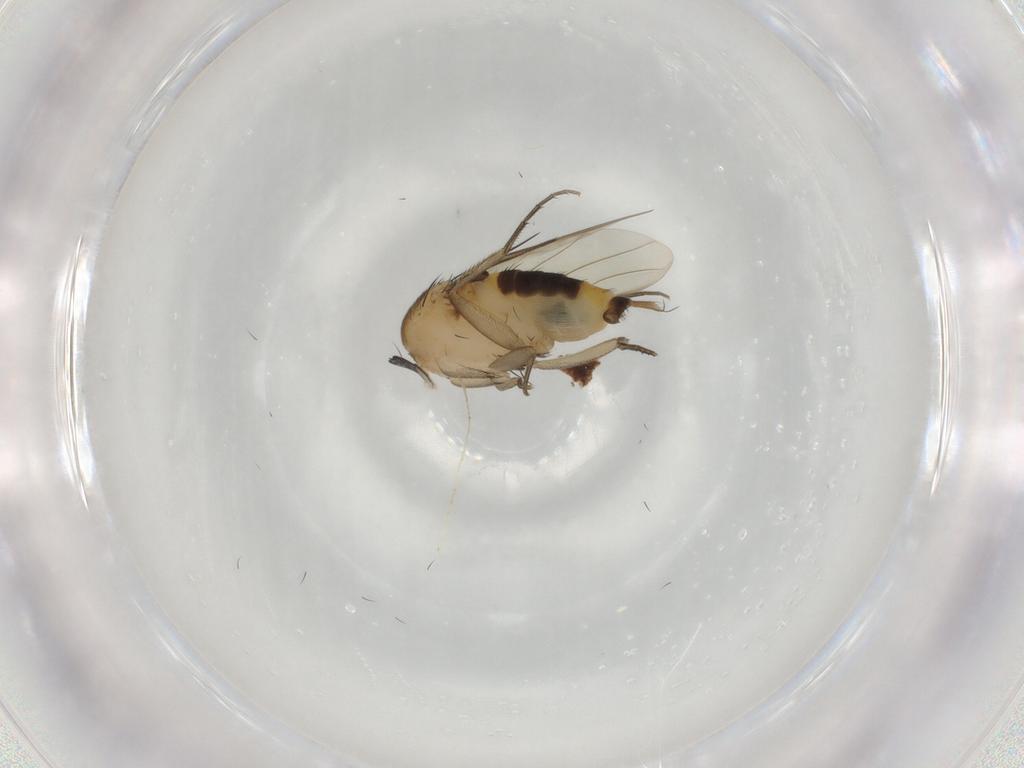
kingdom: Animalia
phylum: Arthropoda
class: Insecta
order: Diptera
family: Phoridae
